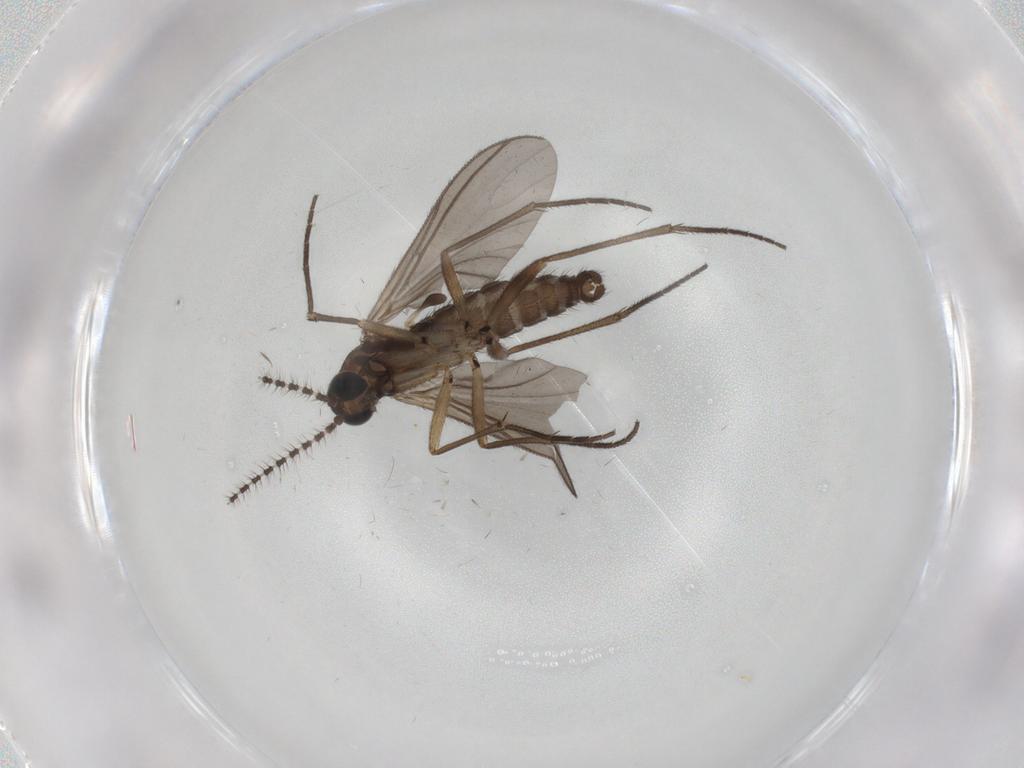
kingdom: Animalia
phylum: Arthropoda
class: Insecta
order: Diptera
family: Sciaridae
